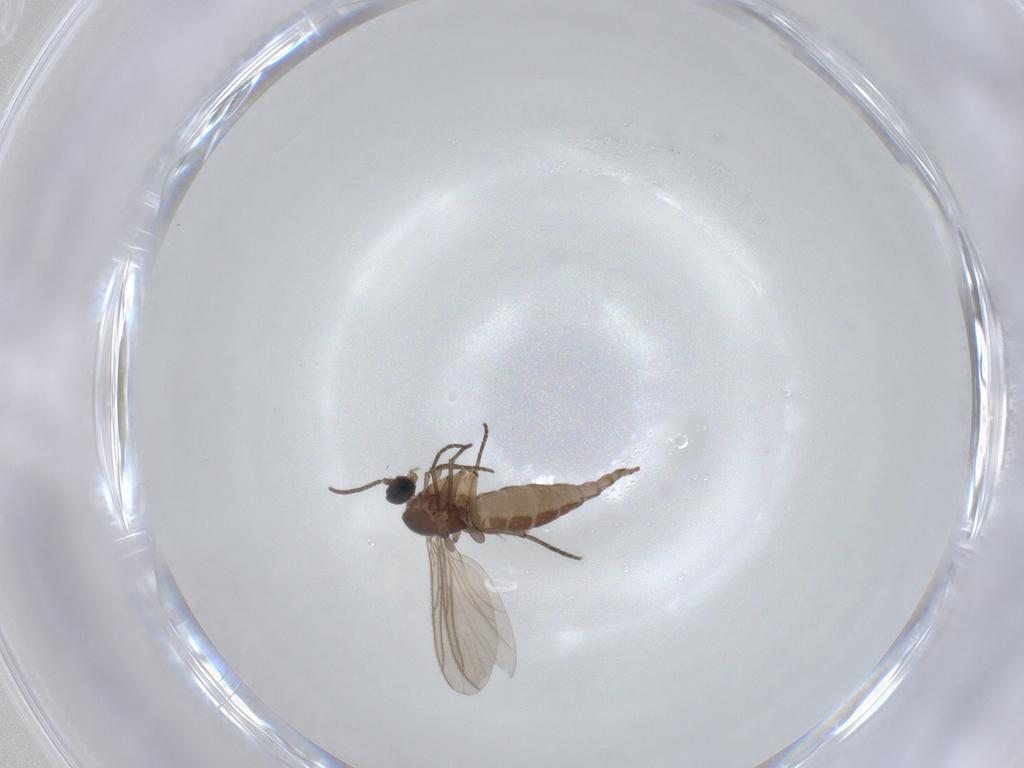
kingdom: Animalia
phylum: Arthropoda
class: Insecta
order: Diptera
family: Sciaridae
